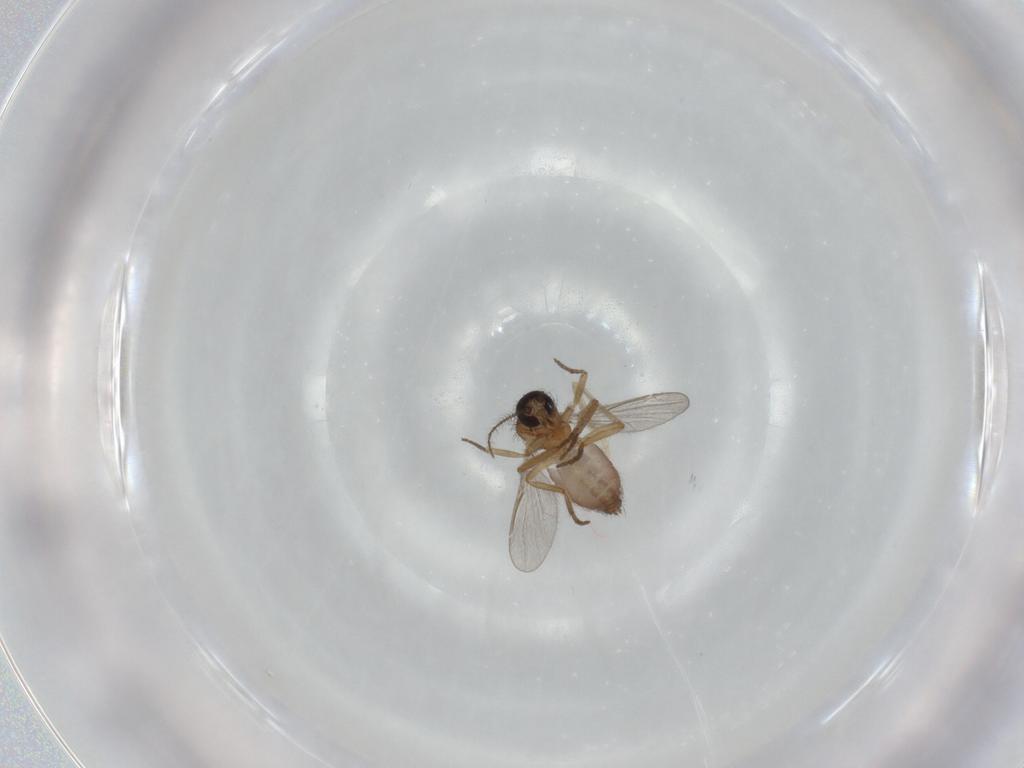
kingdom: Animalia
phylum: Arthropoda
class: Insecta
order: Diptera
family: Ceratopogonidae
